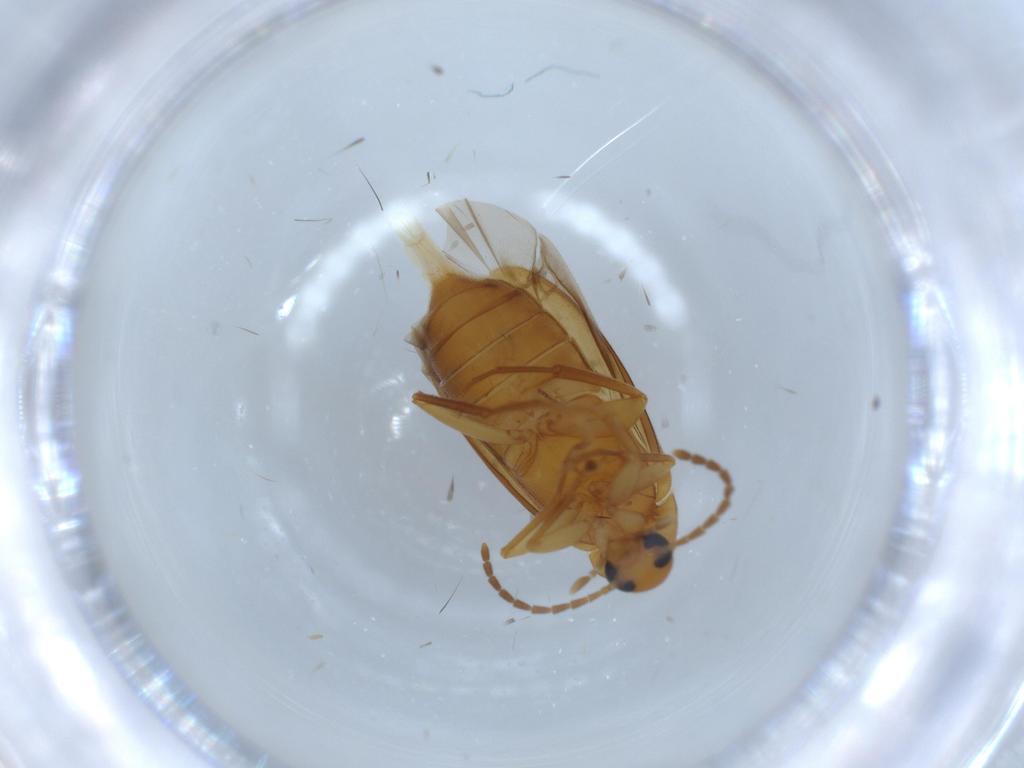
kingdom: Animalia
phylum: Arthropoda
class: Insecta
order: Coleoptera
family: Scraptiidae
